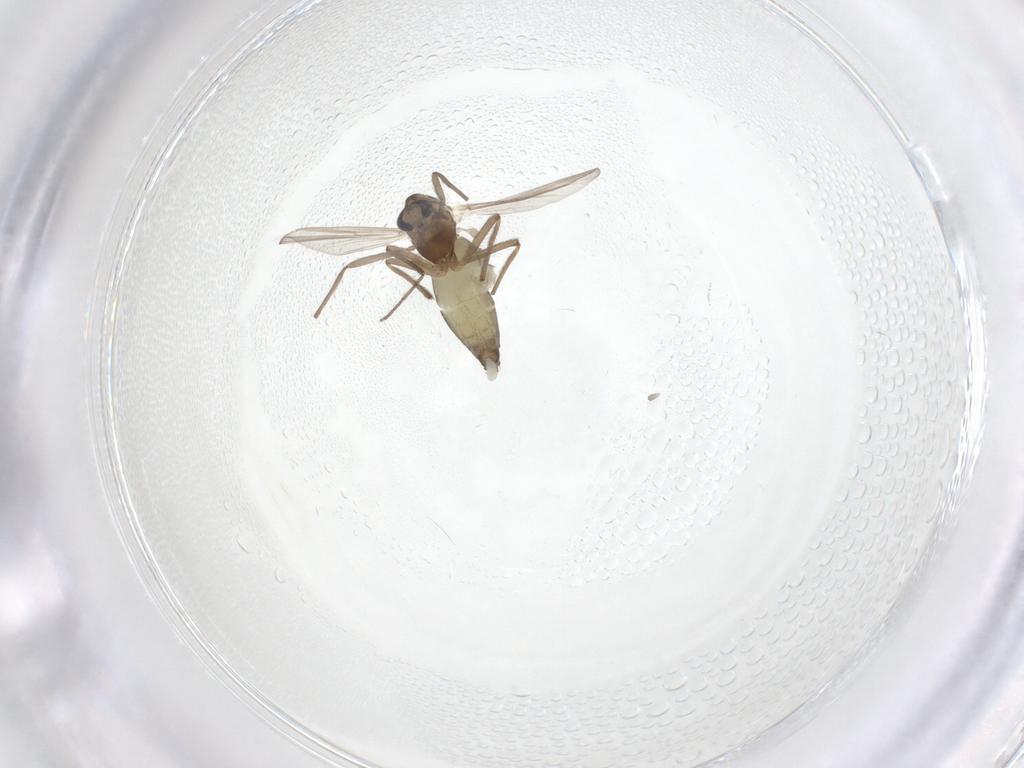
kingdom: Animalia
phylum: Arthropoda
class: Insecta
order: Diptera
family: Chironomidae
